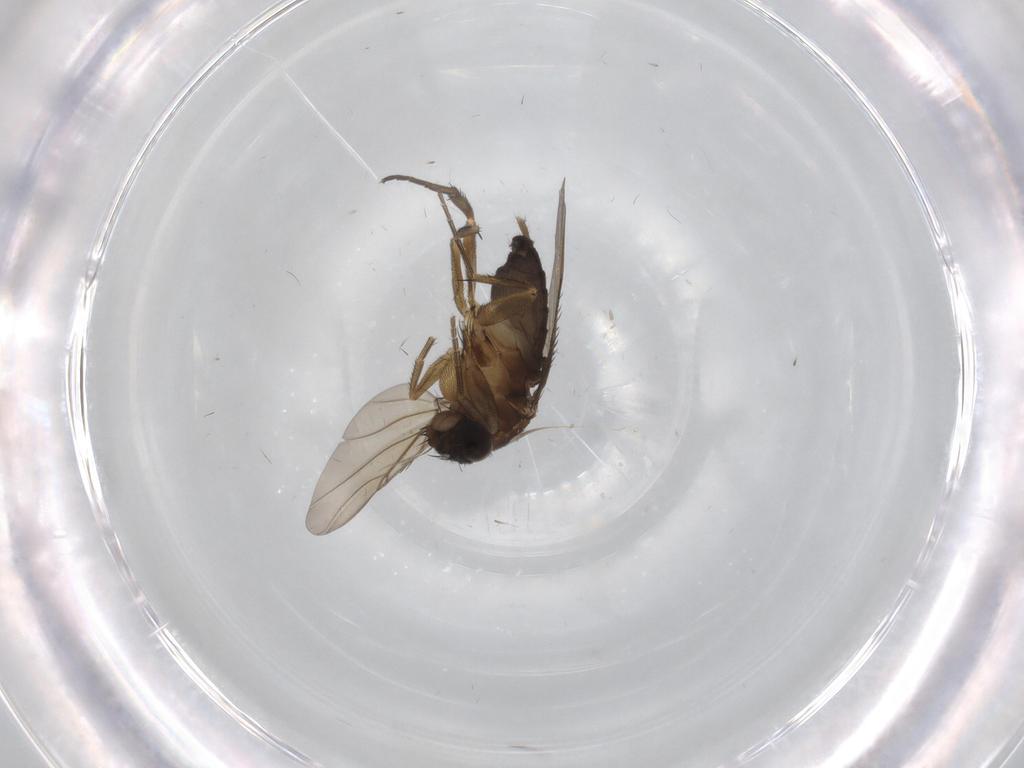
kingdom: Animalia
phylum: Arthropoda
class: Insecta
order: Diptera
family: Phoridae
